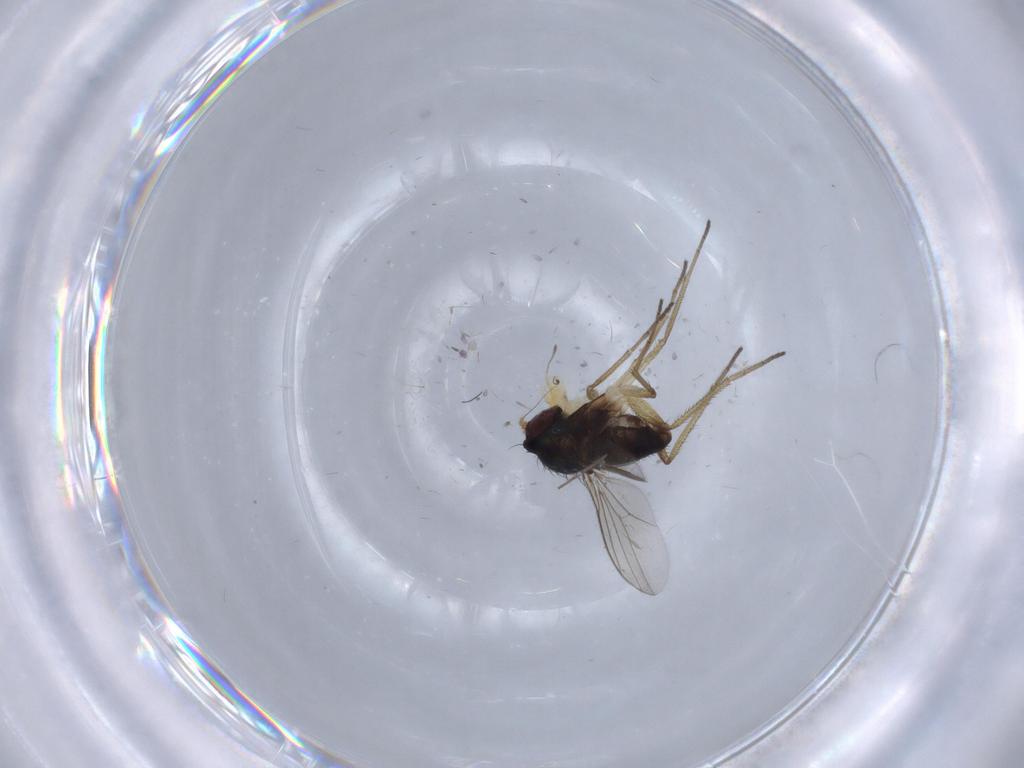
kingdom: Animalia
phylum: Arthropoda
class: Insecta
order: Diptera
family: Dolichopodidae
